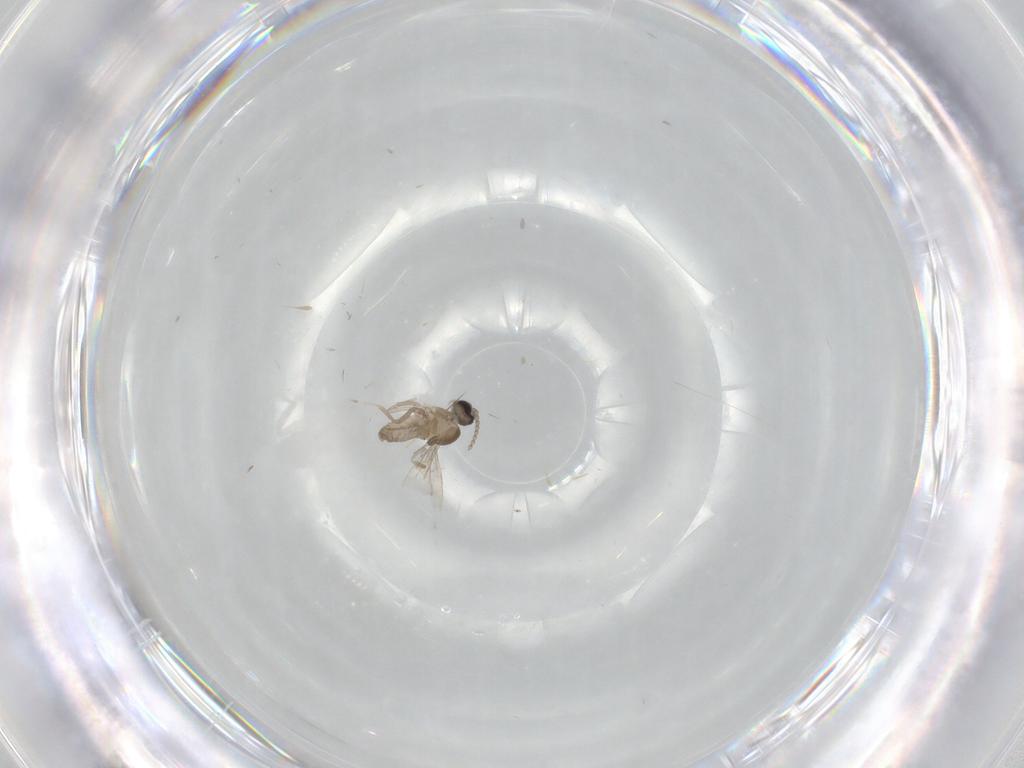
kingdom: Animalia
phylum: Arthropoda
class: Insecta
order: Diptera
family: Cecidomyiidae
